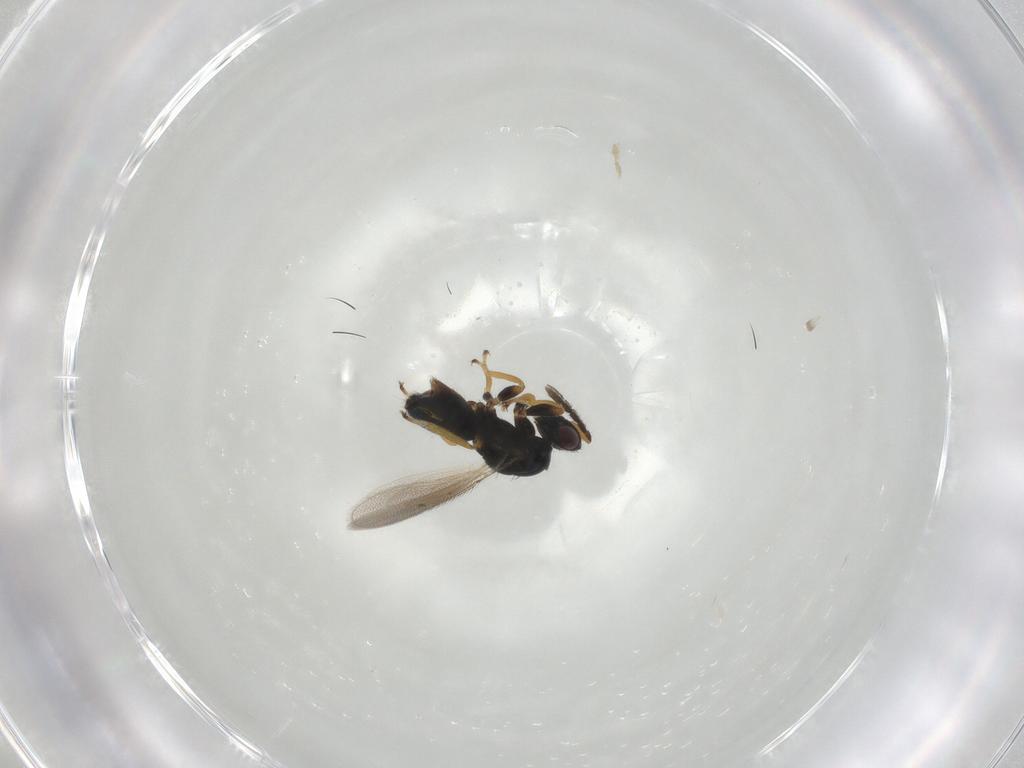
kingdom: Animalia
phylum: Arthropoda
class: Insecta
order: Hymenoptera
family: Eulophidae
